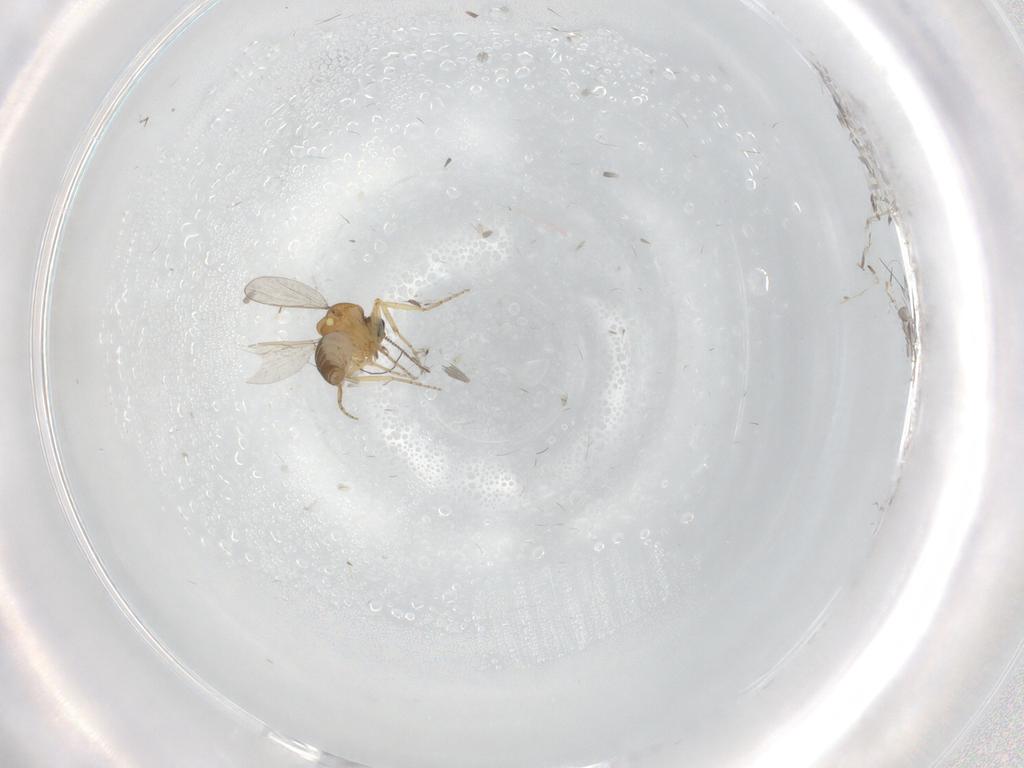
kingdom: Animalia
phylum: Arthropoda
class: Insecta
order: Diptera
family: Ceratopogonidae
